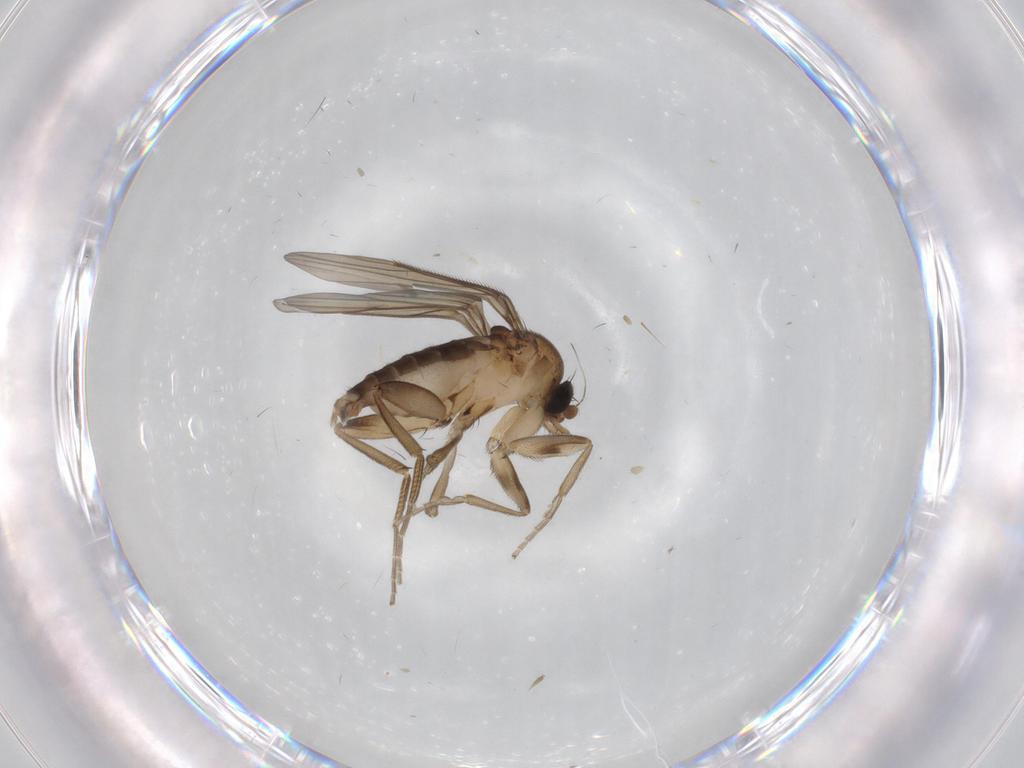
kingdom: Animalia
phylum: Arthropoda
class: Insecta
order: Diptera
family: Phoridae
